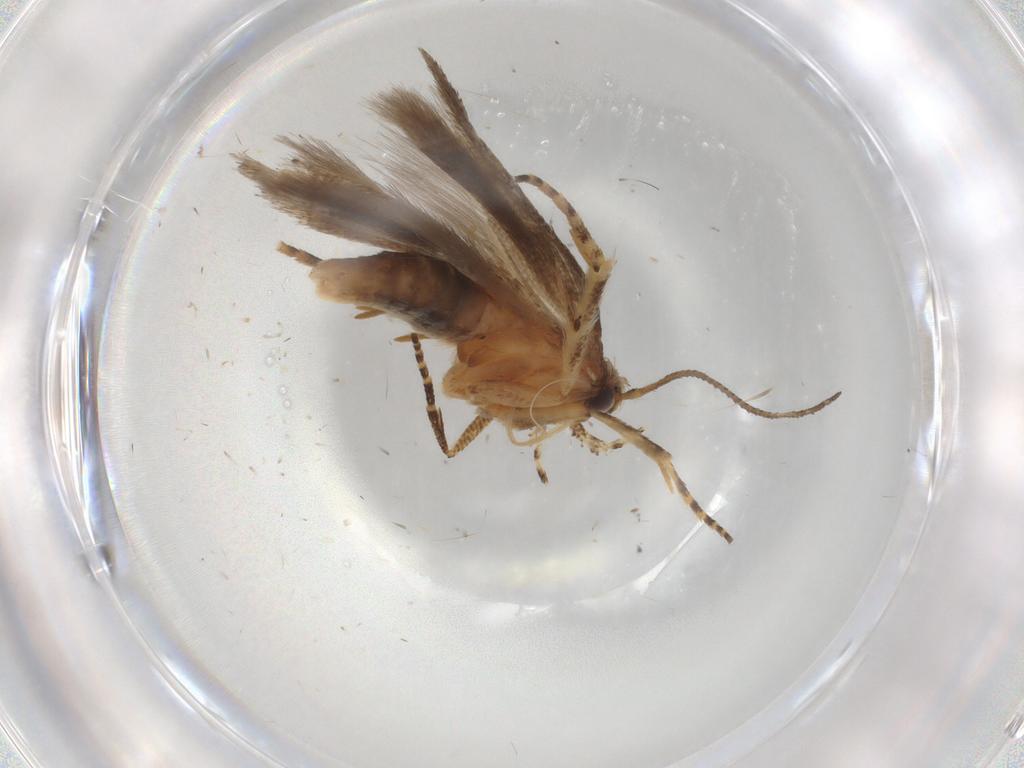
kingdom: Animalia
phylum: Arthropoda
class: Insecta
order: Lepidoptera
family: Gelechiidae
